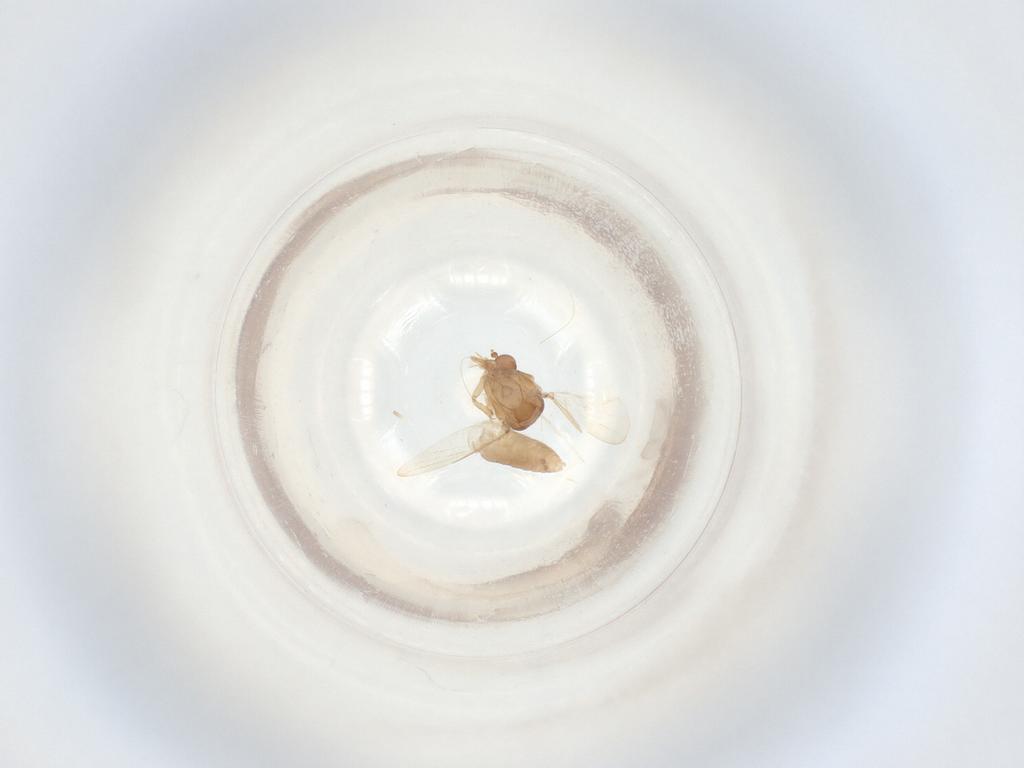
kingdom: Animalia
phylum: Arthropoda
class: Insecta
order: Diptera
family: Ceratopogonidae
